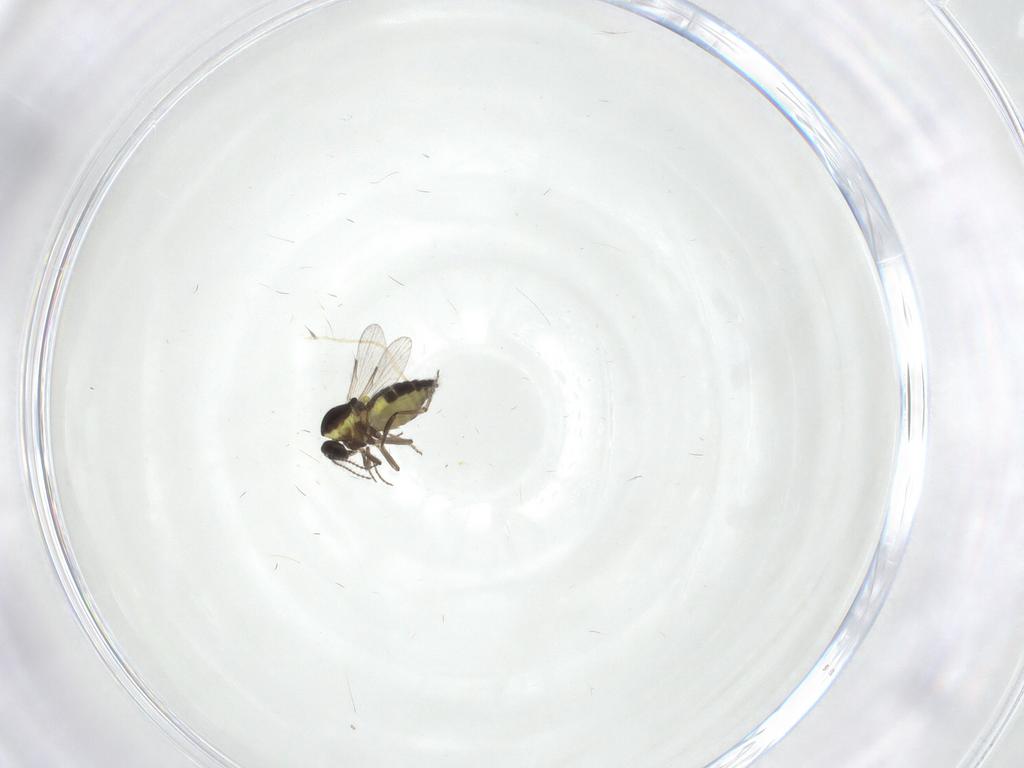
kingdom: Animalia
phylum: Arthropoda
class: Insecta
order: Diptera
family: Ceratopogonidae
